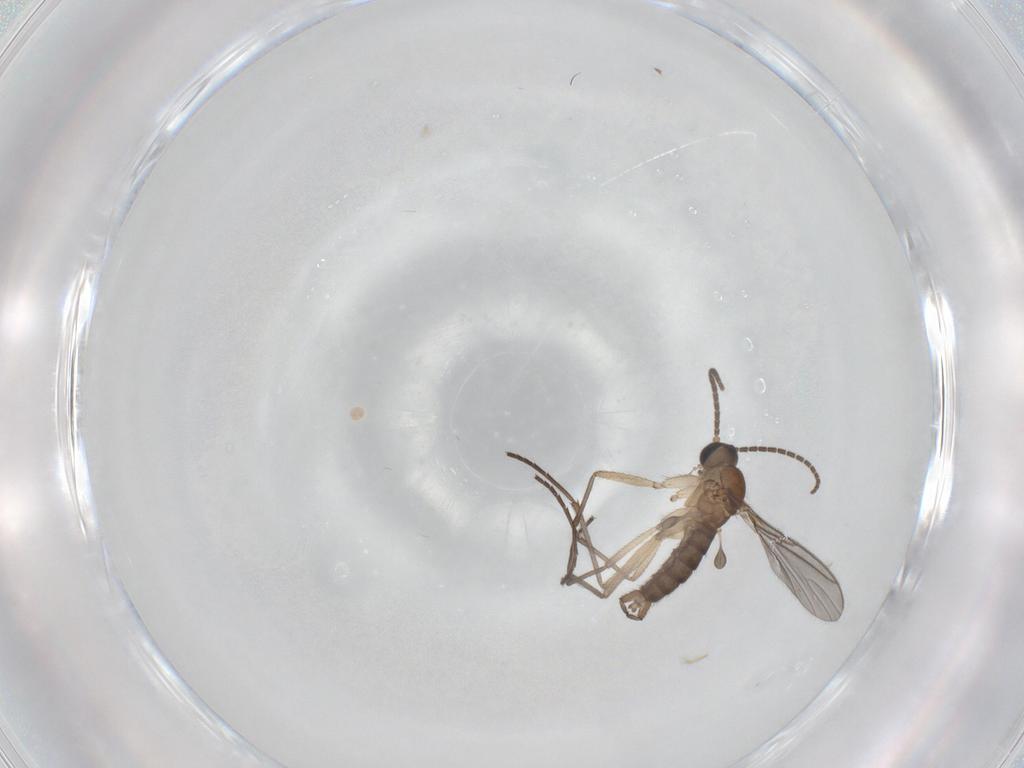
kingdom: Animalia
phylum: Arthropoda
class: Insecta
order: Diptera
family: Sciaridae
